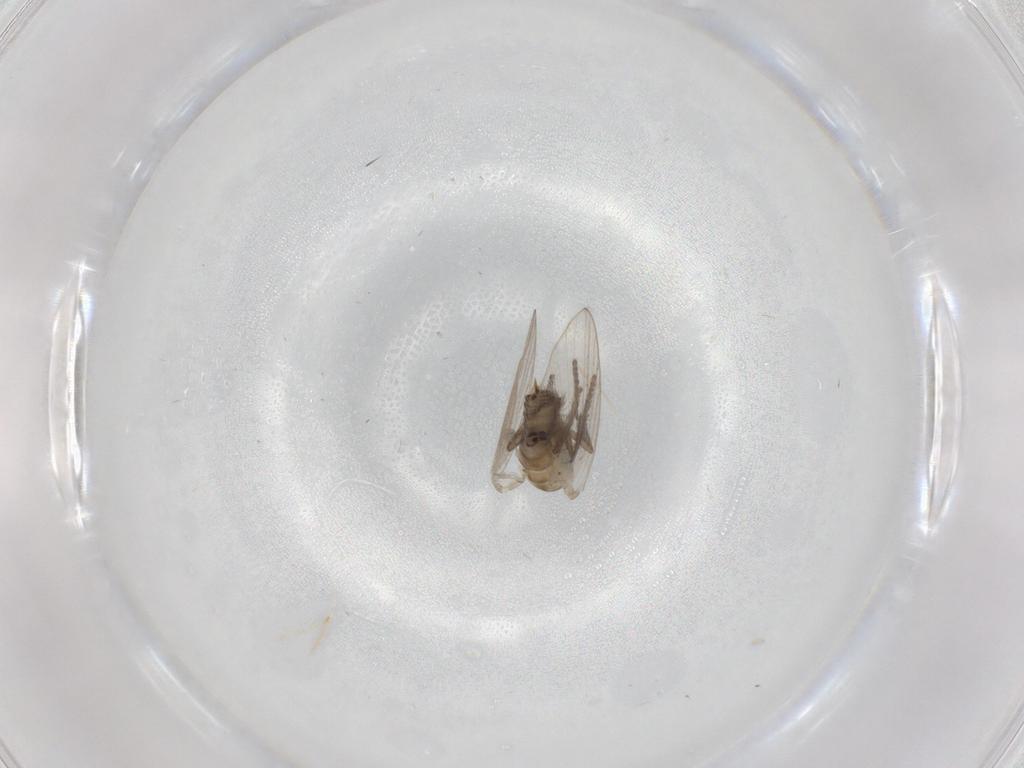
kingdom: Animalia
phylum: Arthropoda
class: Insecta
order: Diptera
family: Psychodidae
